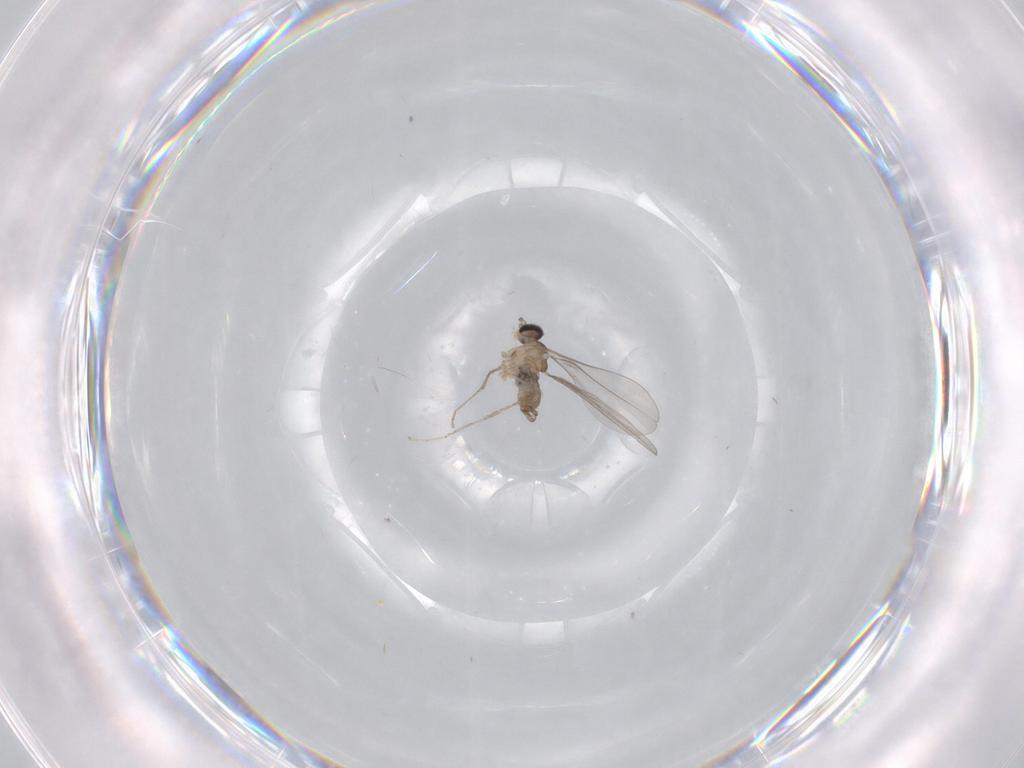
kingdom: Animalia
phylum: Arthropoda
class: Insecta
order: Diptera
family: Cecidomyiidae
